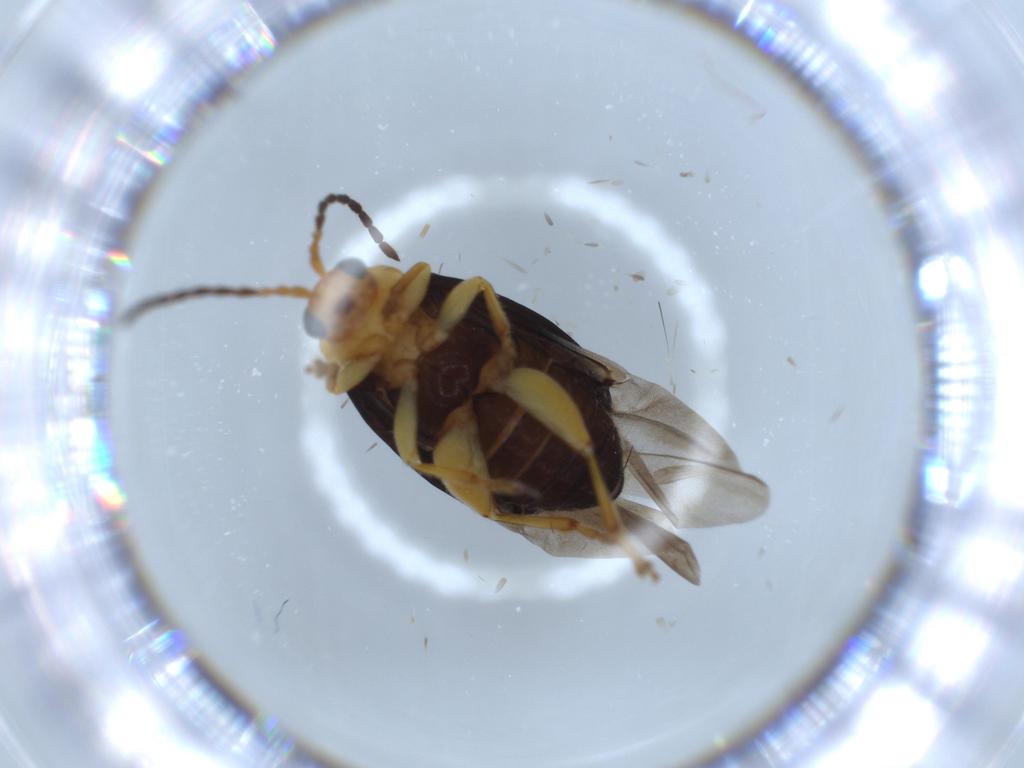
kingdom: Animalia
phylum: Arthropoda
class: Insecta
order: Coleoptera
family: Chrysomelidae
